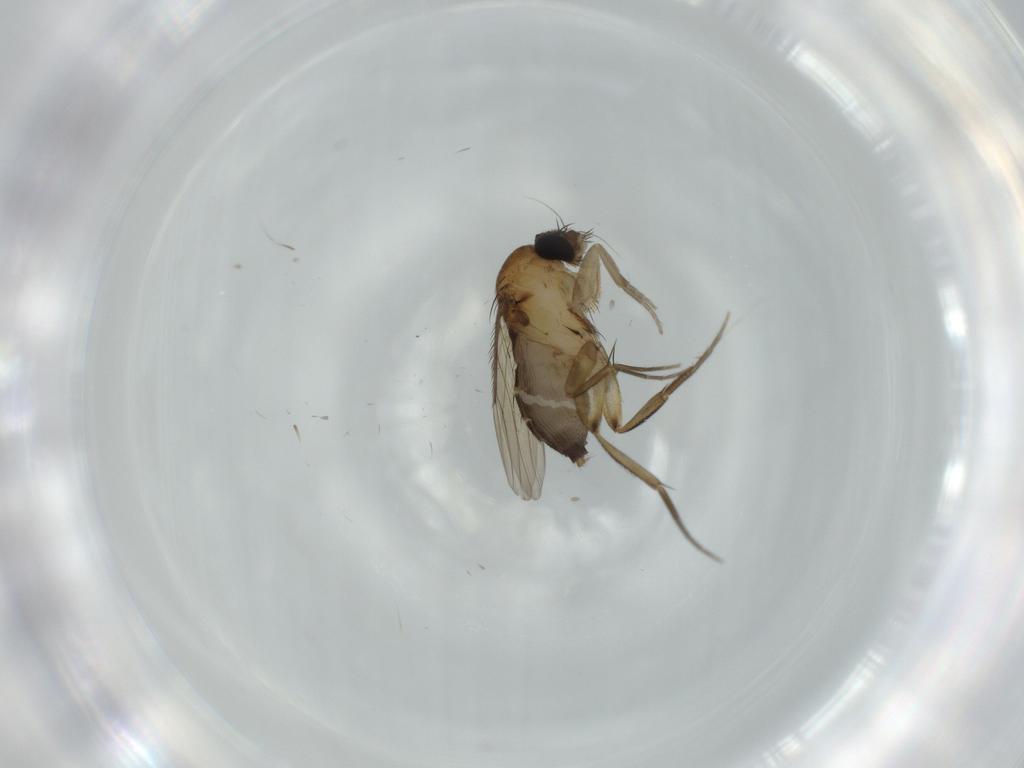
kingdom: Animalia
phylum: Arthropoda
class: Insecta
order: Diptera
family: Phoridae
